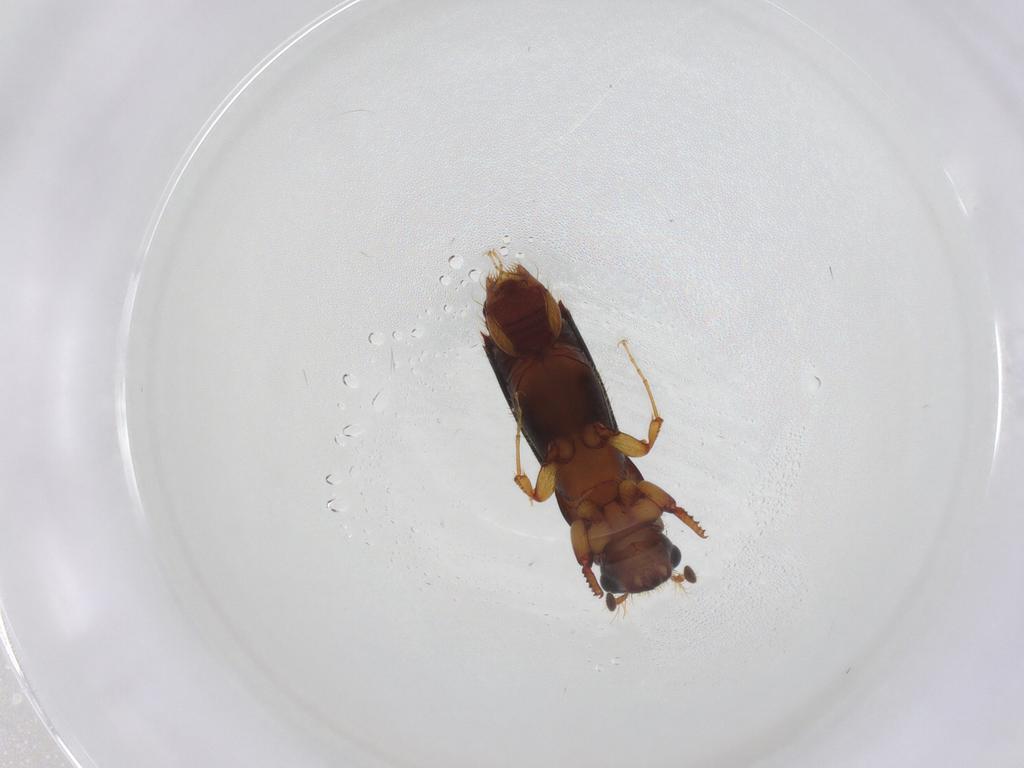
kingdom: Animalia
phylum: Arthropoda
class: Insecta
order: Coleoptera
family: Curculionidae
